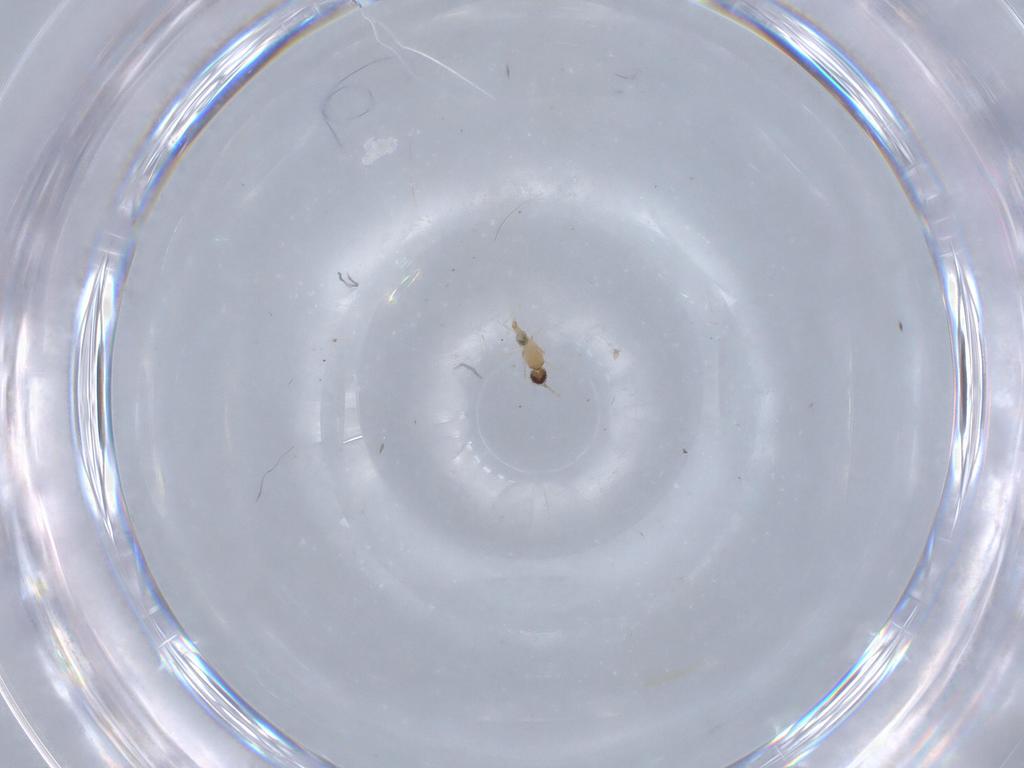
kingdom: Animalia
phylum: Arthropoda
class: Insecta
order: Diptera
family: Cecidomyiidae
